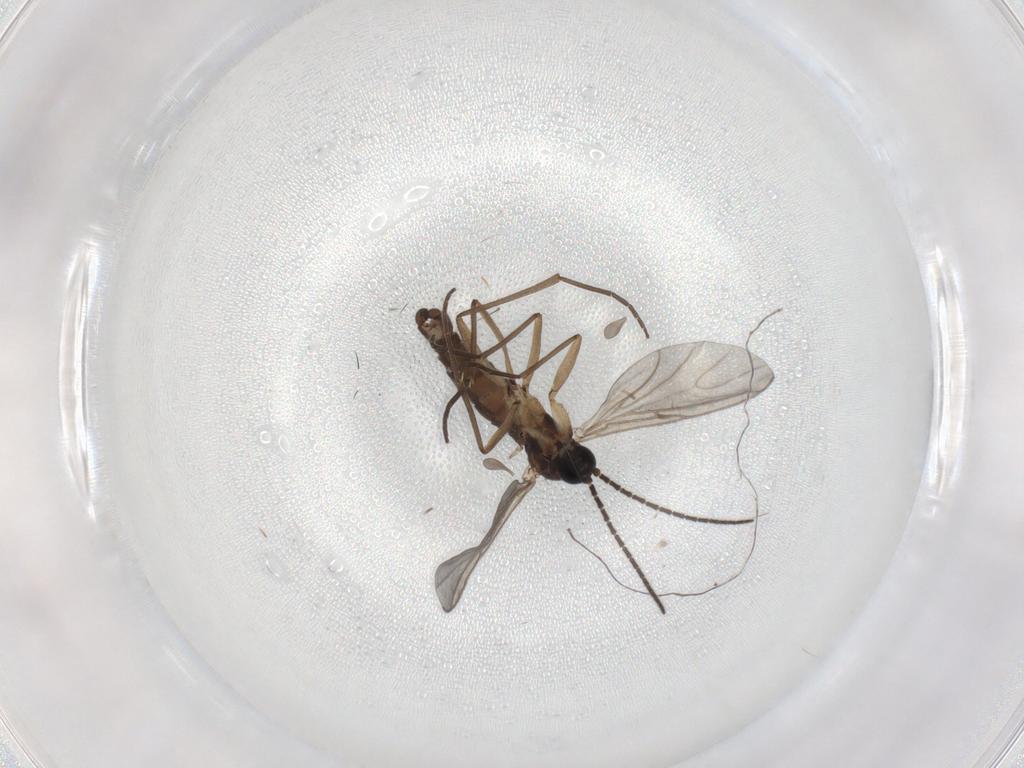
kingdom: Animalia
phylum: Arthropoda
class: Insecta
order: Diptera
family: Sciaridae
